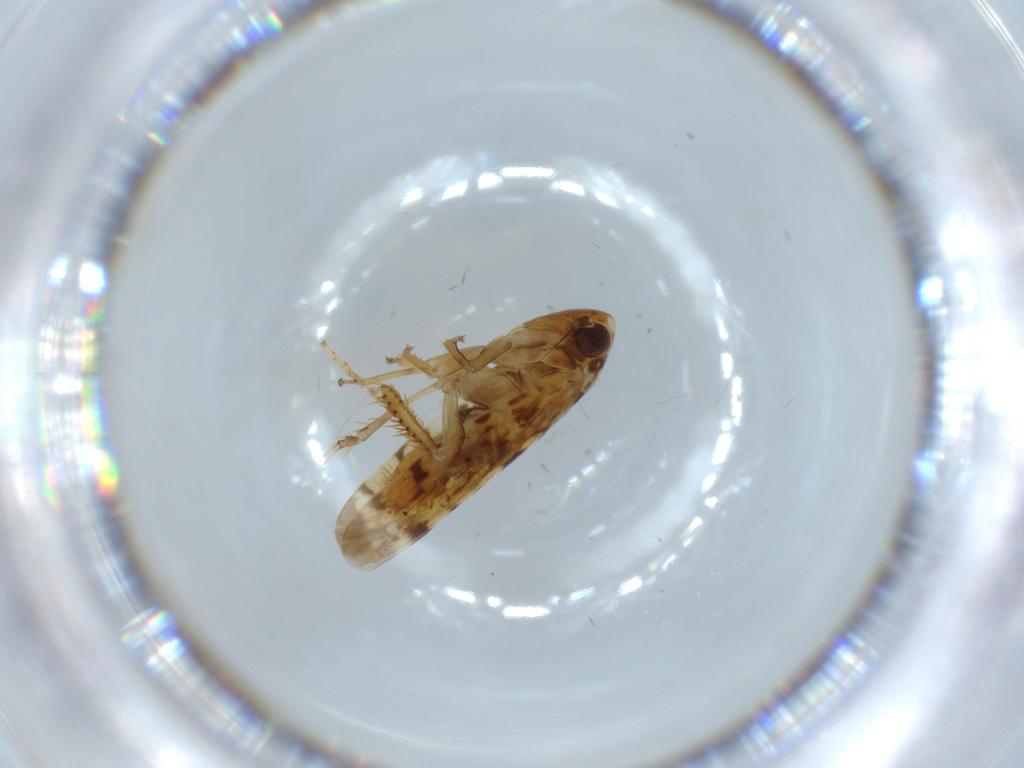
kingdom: Animalia
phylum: Arthropoda
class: Insecta
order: Hemiptera
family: Cicadellidae
